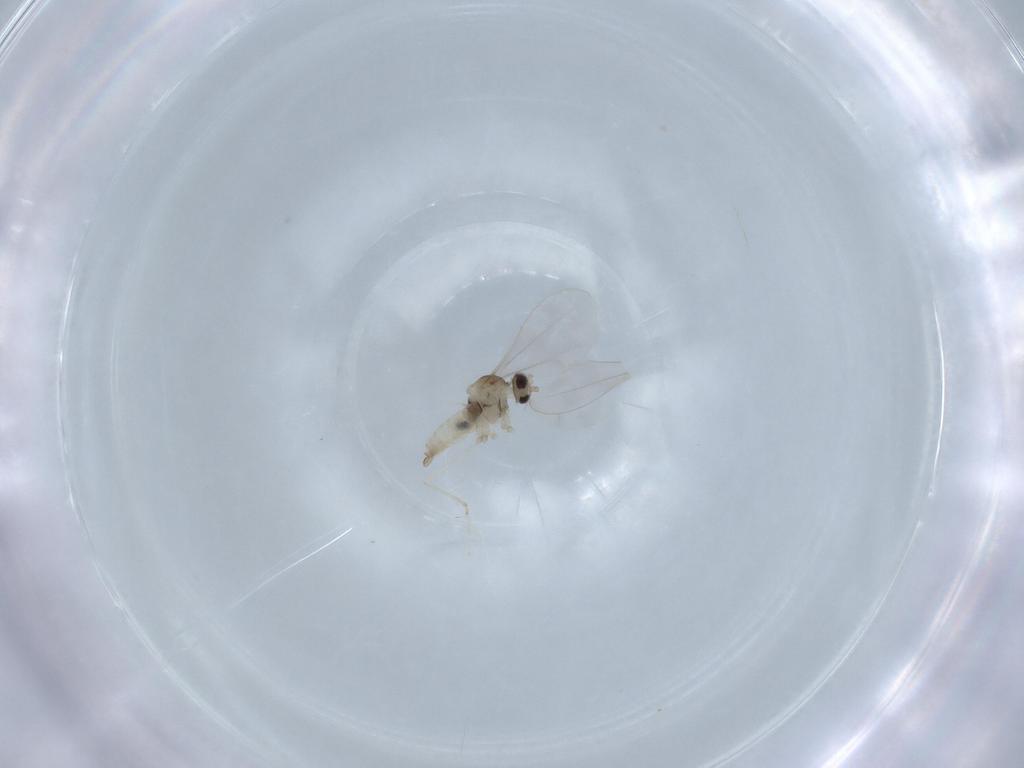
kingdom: Animalia
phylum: Arthropoda
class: Insecta
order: Diptera
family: Cecidomyiidae
